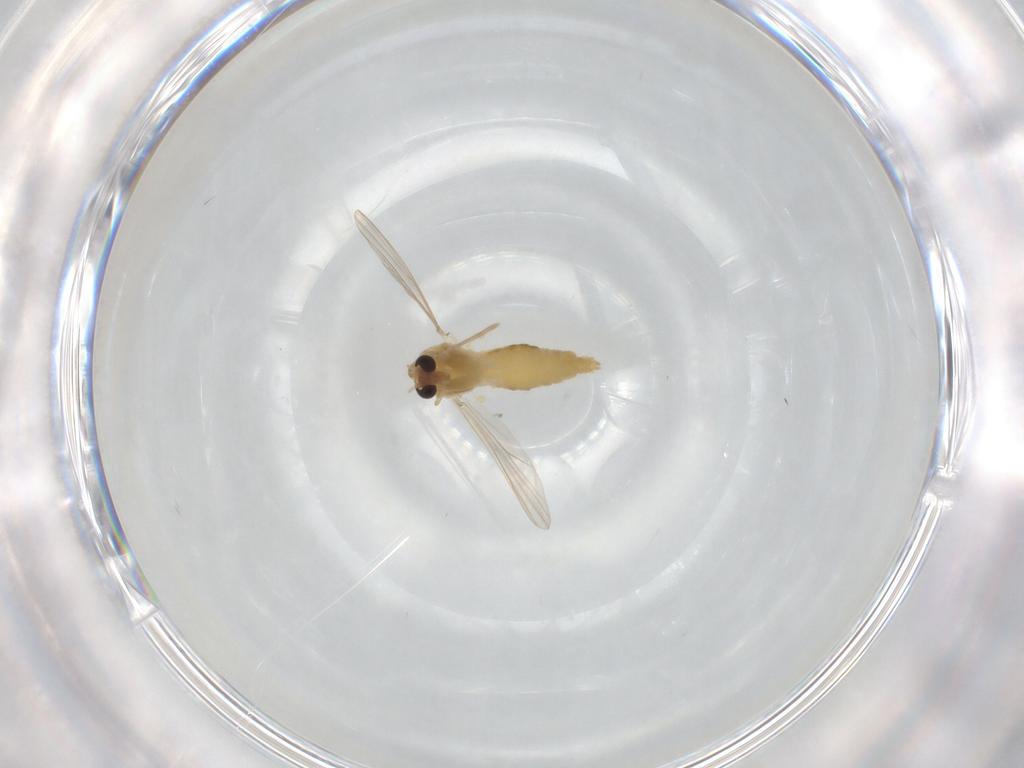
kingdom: Animalia
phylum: Arthropoda
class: Insecta
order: Diptera
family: Chironomidae
